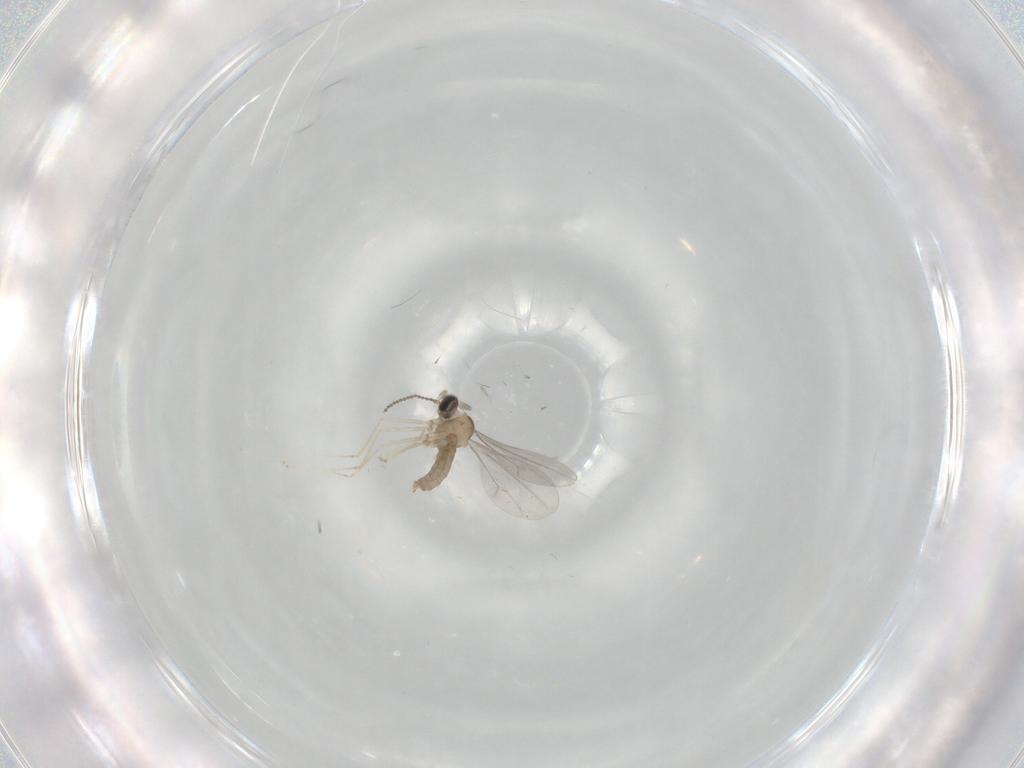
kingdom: Animalia
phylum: Arthropoda
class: Insecta
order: Diptera
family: Cecidomyiidae
